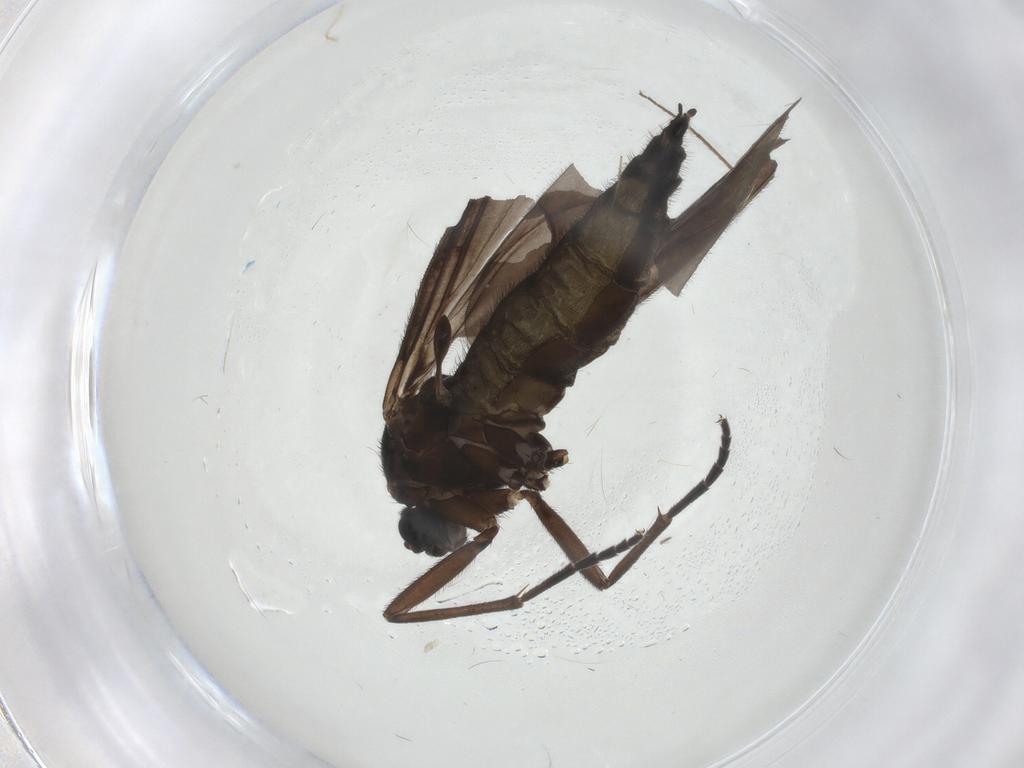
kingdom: Animalia
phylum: Arthropoda
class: Insecta
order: Diptera
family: Sciaridae
